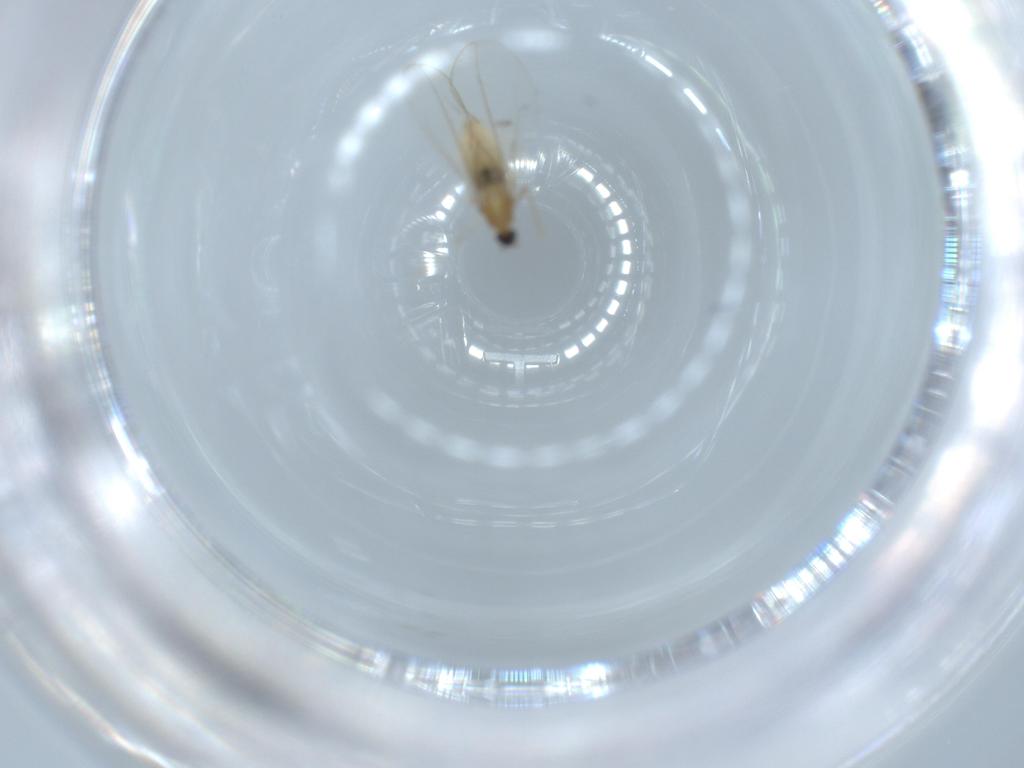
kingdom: Animalia
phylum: Arthropoda
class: Insecta
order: Diptera
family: Cecidomyiidae
